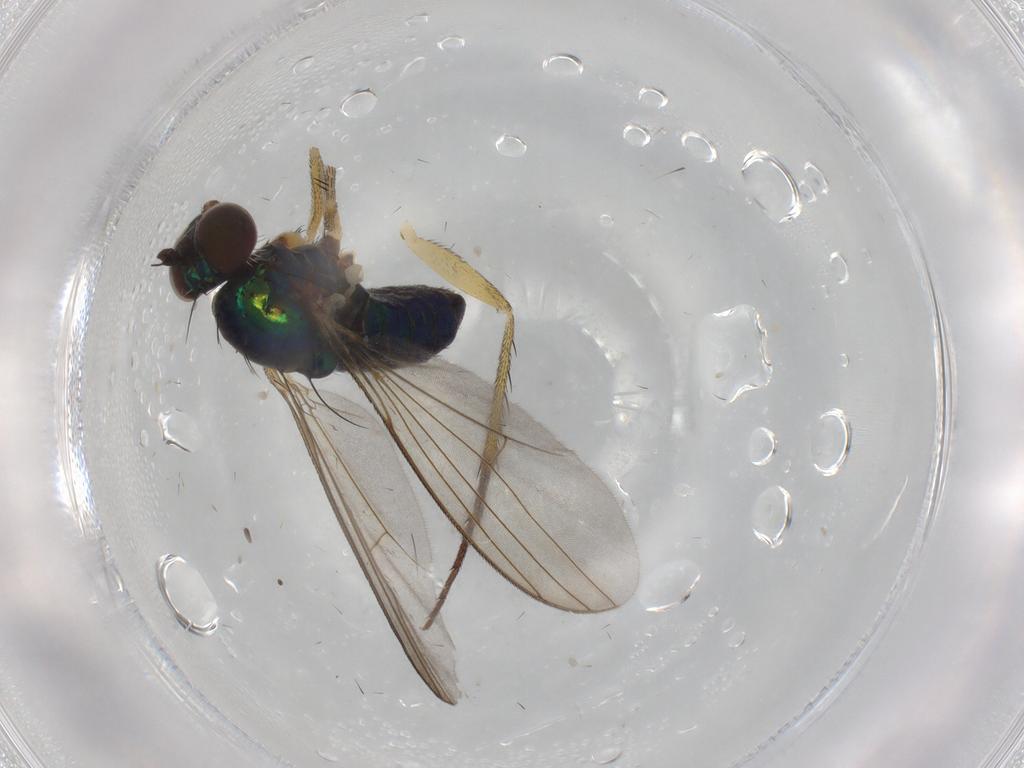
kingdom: Animalia
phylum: Arthropoda
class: Insecta
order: Diptera
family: Dolichopodidae
